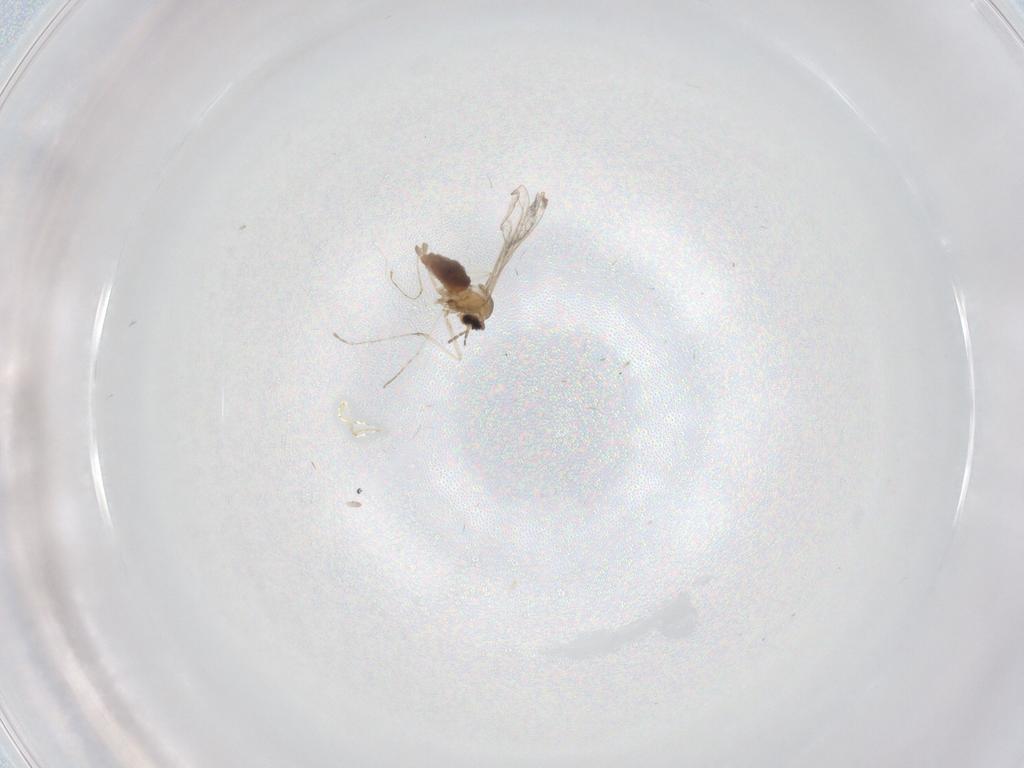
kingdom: Animalia
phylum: Arthropoda
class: Insecta
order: Diptera
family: Cecidomyiidae
